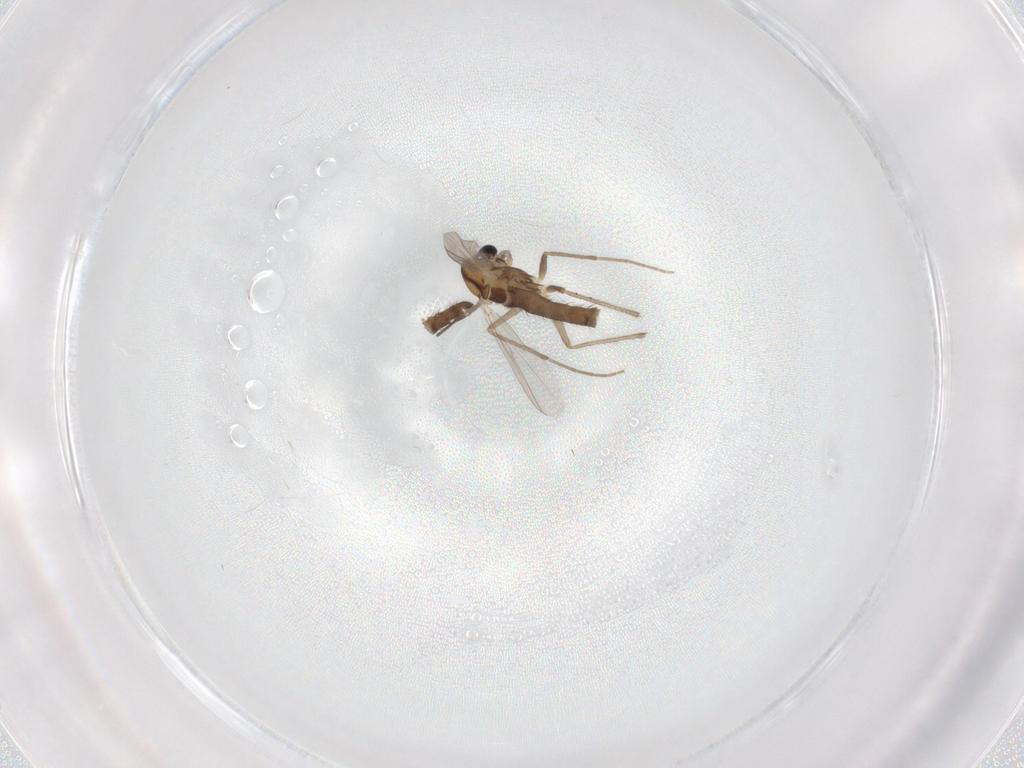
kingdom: Animalia
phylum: Arthropoda
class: Insecta
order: Diptera
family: Chironomidae
